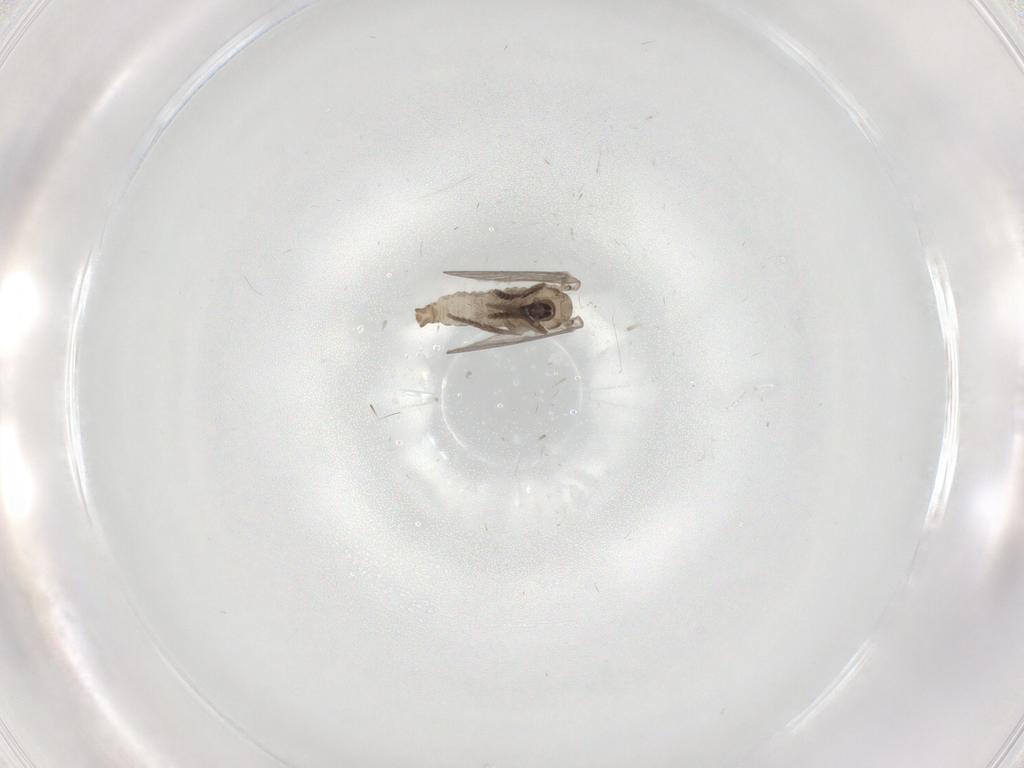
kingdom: Animalia
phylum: Arthropoda
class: Insecta
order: Diptera
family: Psychodidae
